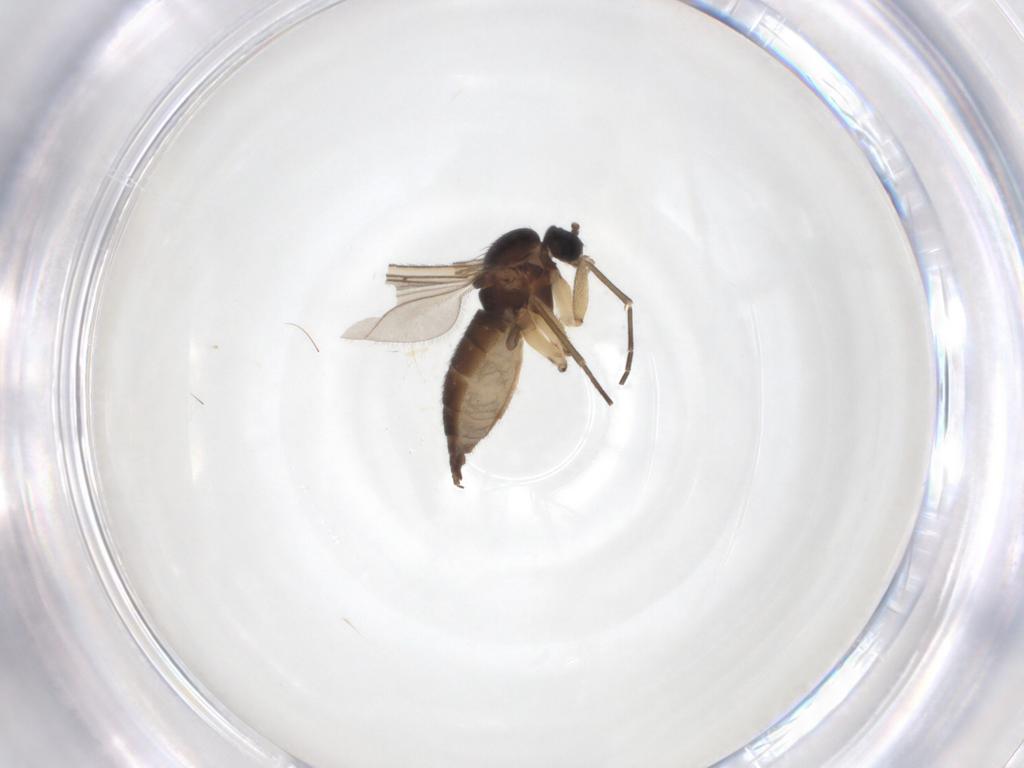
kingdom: Animalia
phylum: Arthropoda
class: Insecta
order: Diptera
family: Sciaridae
